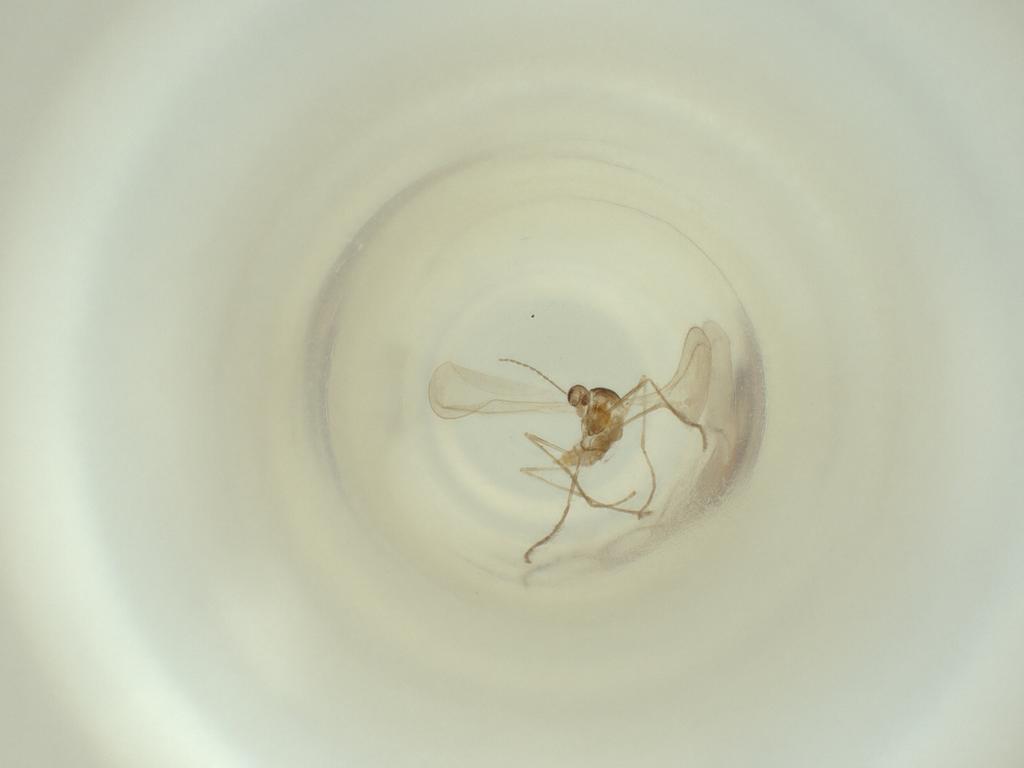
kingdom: Animalia
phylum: Arthropoda
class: Insecta
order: Diptera
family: Cecidomyiidae
